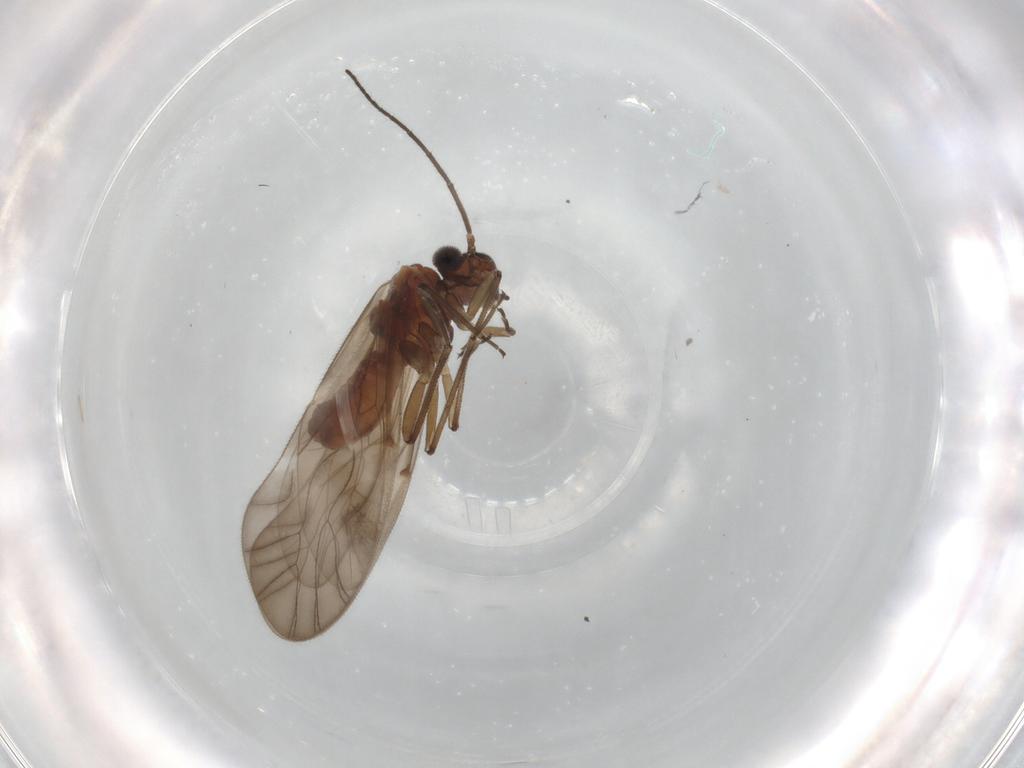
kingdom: Animalia
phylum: Arthropoda
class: Insecta
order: Psocodea
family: Caeciliusidae
